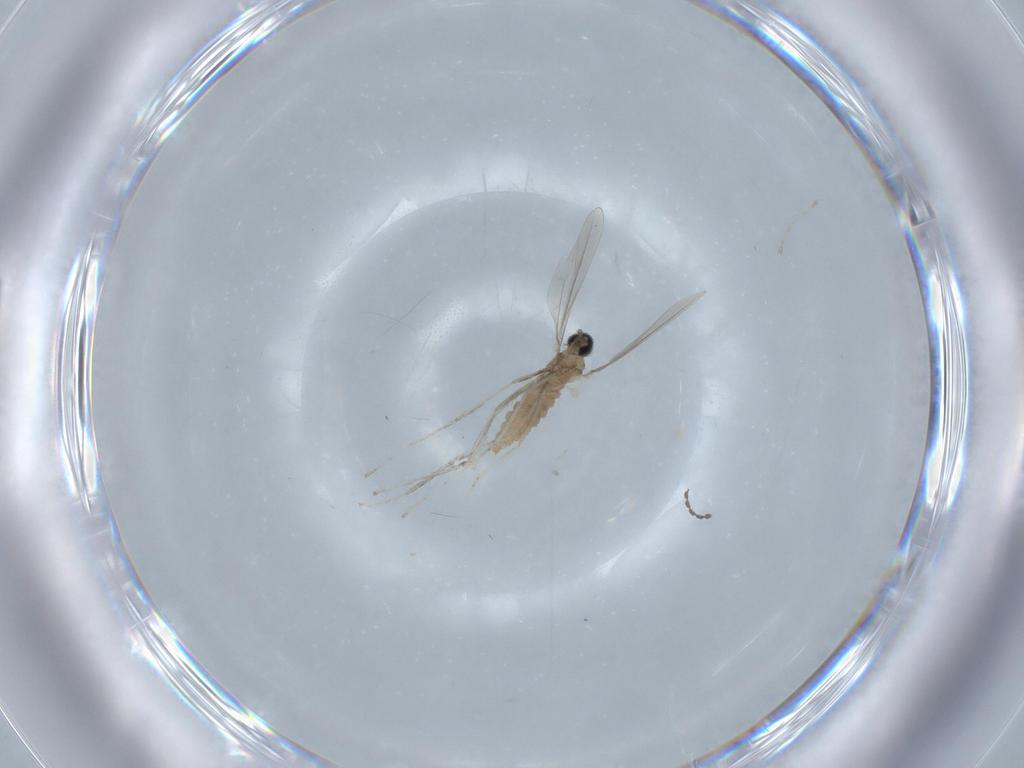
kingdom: Animalia
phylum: Arthropoda
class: Insecta
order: Diptera
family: Cecidomyiidae
